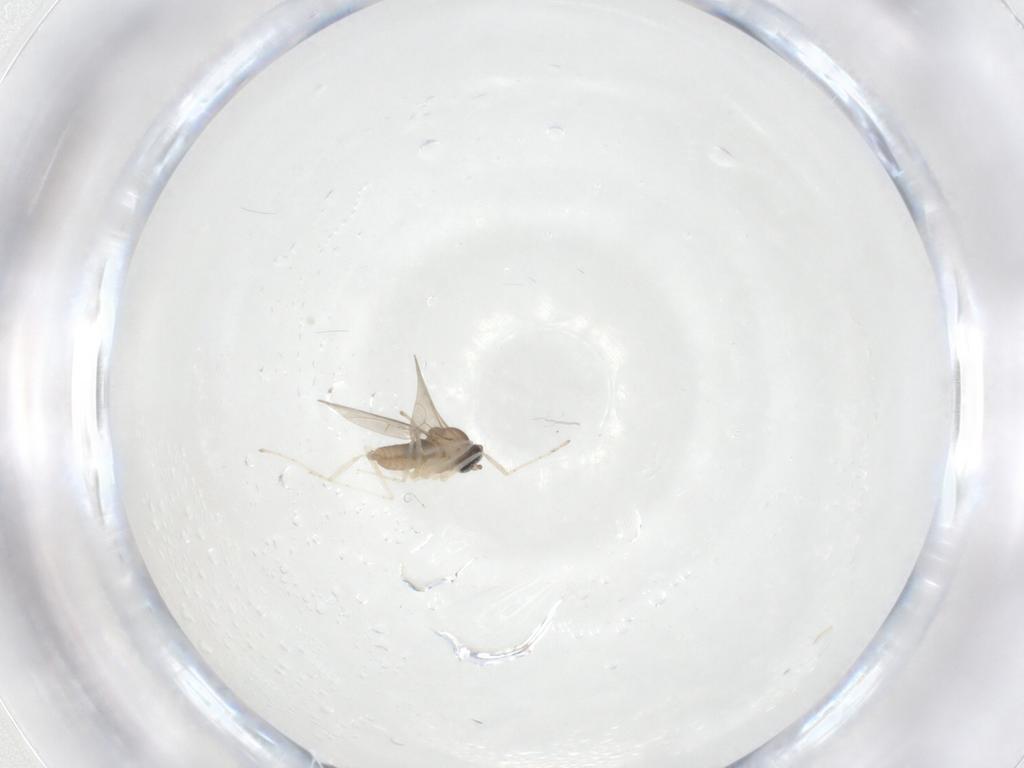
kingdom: Animalia
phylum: Arthropoda
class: Insecta
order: Diptera
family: Cecidomyiidae
